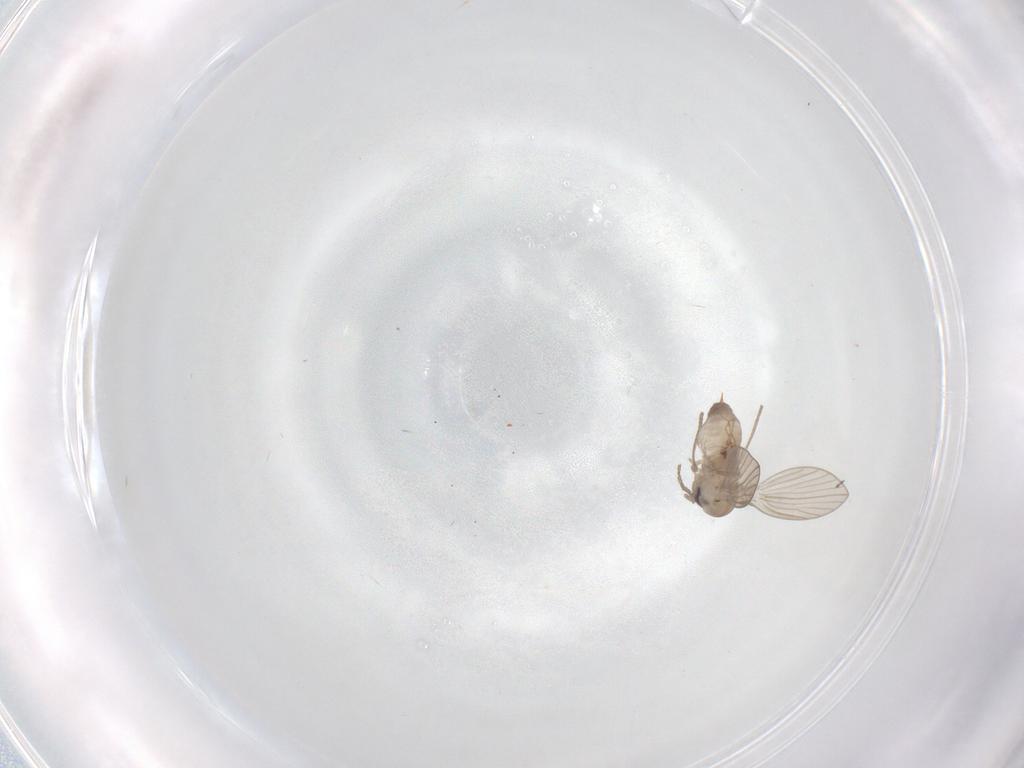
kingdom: Animalia
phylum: Arthropoda
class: Insecta
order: Diptera
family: Psychodidae
